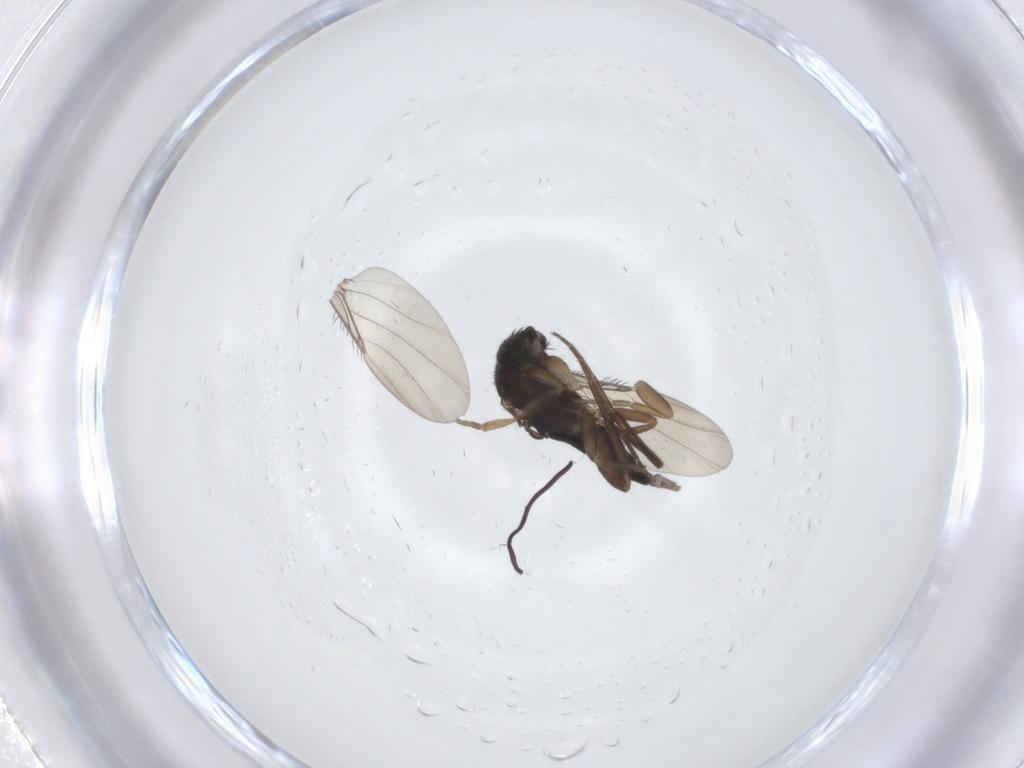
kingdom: Animalia
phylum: Arthropoda
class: Insecta
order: Diptera
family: Phoridae
